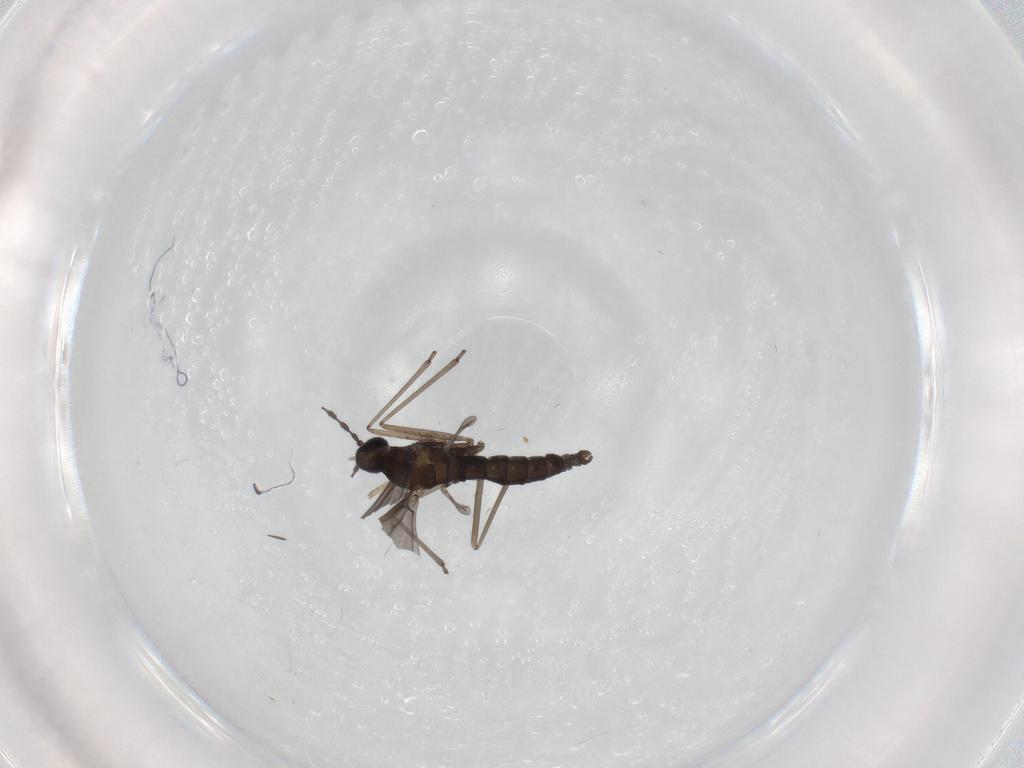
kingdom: Animalia
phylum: Arthropoda
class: Insecta
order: Diptera
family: Cecidomyiidae
